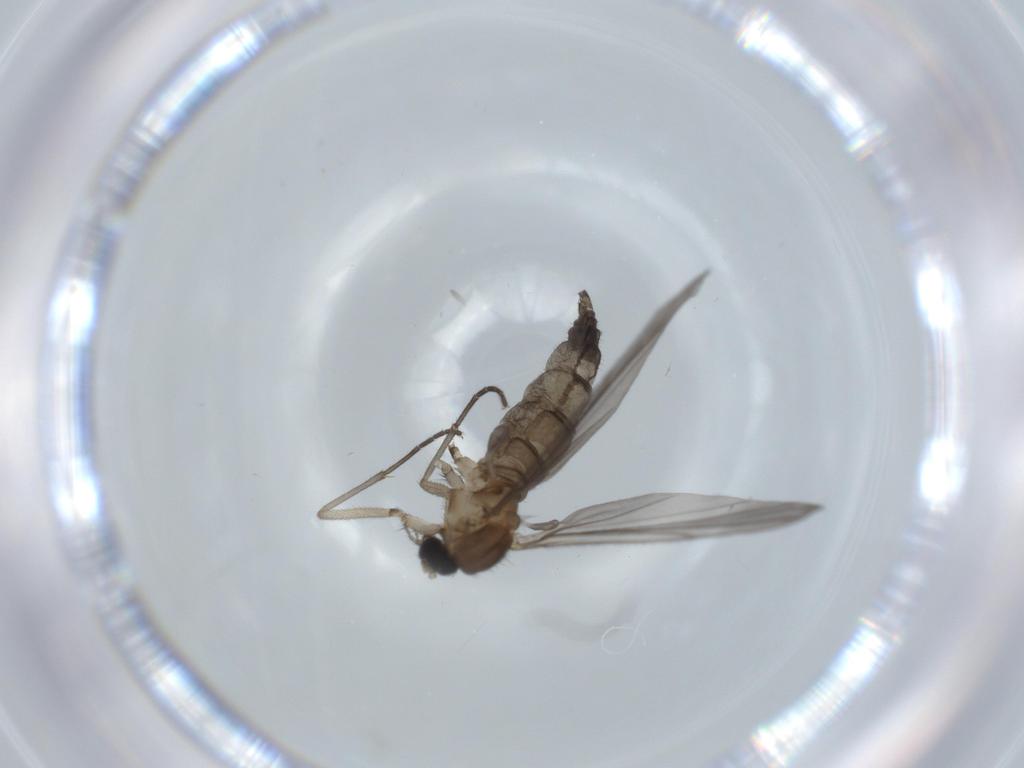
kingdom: Animalia
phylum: Arthropoda
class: Insecta
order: Diptera
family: Sciaridae
